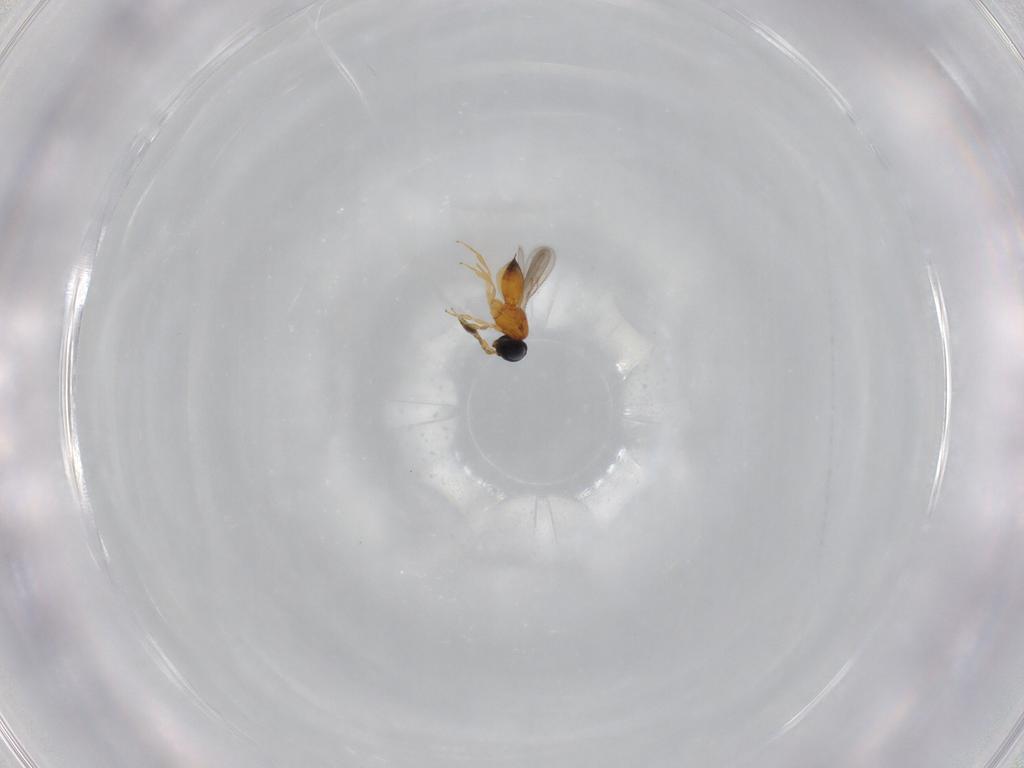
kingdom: Animalia
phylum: Arthropoda
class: Insecta
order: Hymenoptera
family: Scelionidae
